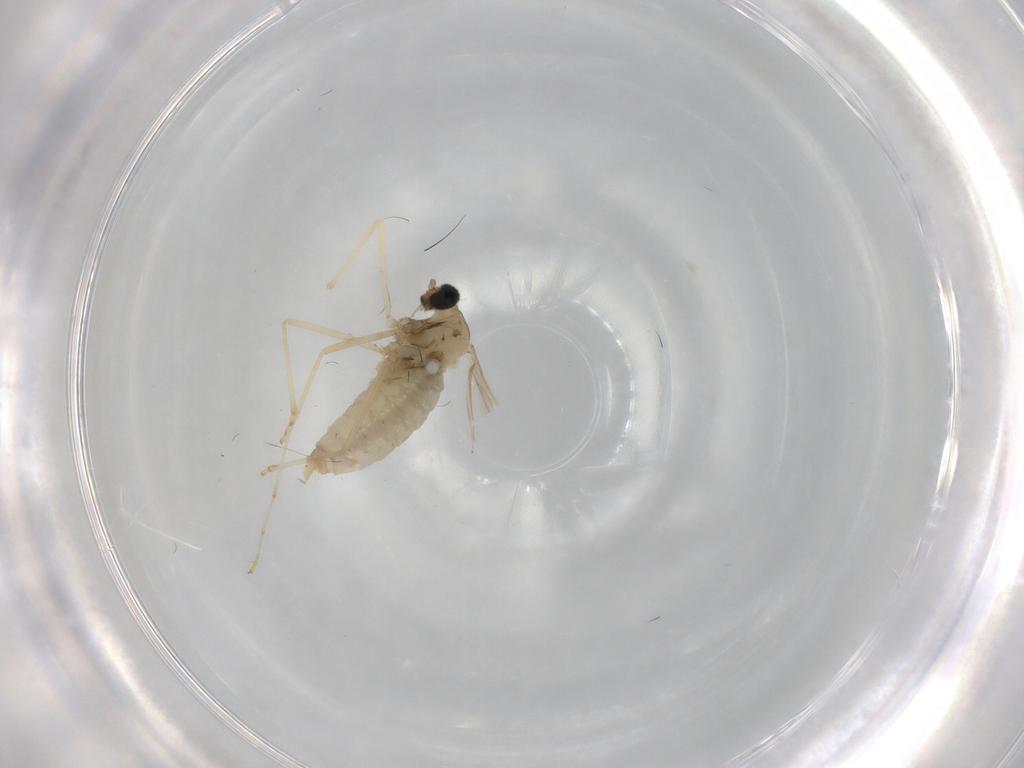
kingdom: Animalia
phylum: Arthropoda
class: Insecta
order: Diptera
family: Cecidomyiidae
